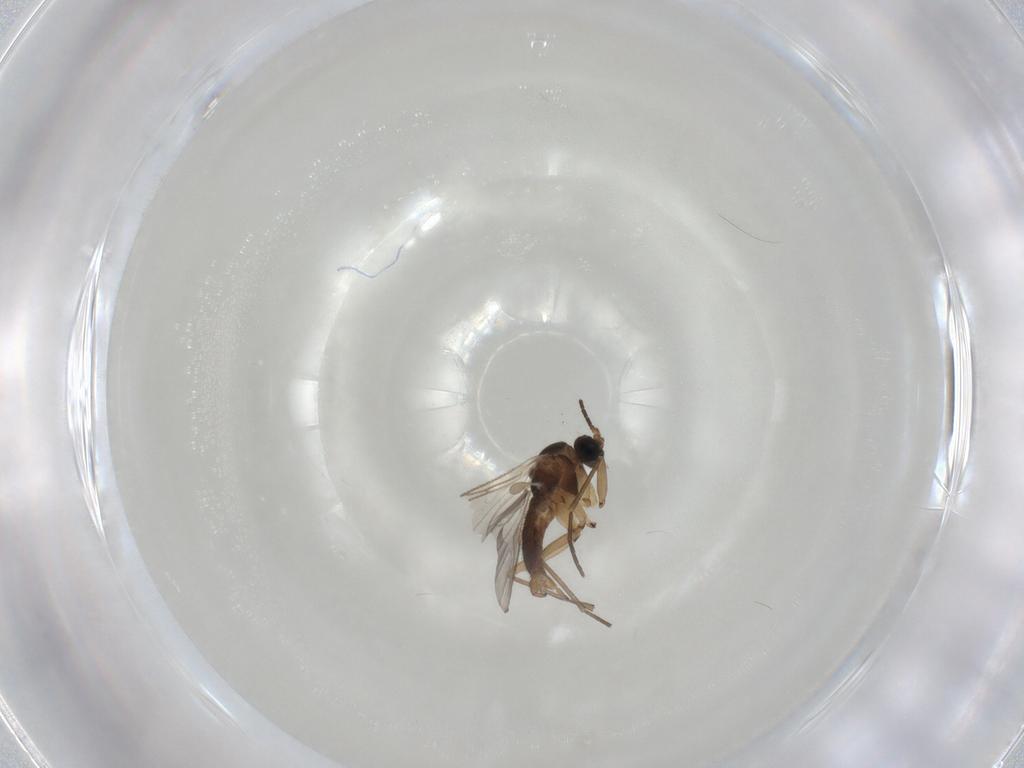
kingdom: Animalia
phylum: Arthropoda
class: Insecta
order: Diptera
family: Sciaridae
